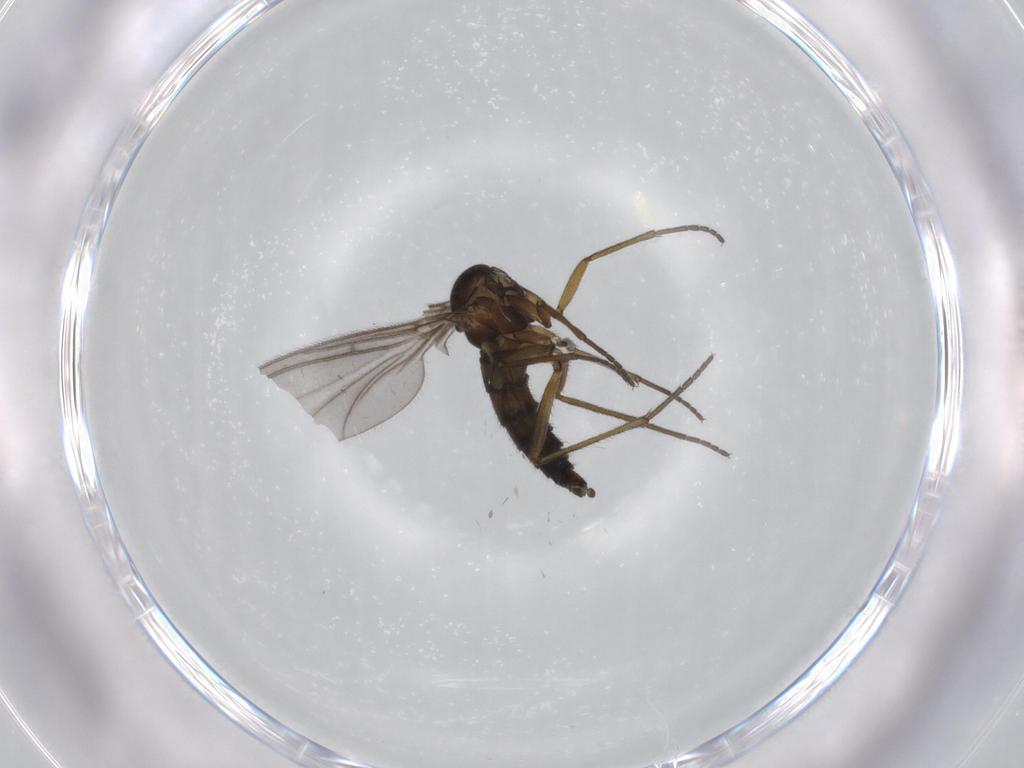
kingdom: Animalia
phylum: Arthropoda
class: Insecta
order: Diptera
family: Sciaridae
